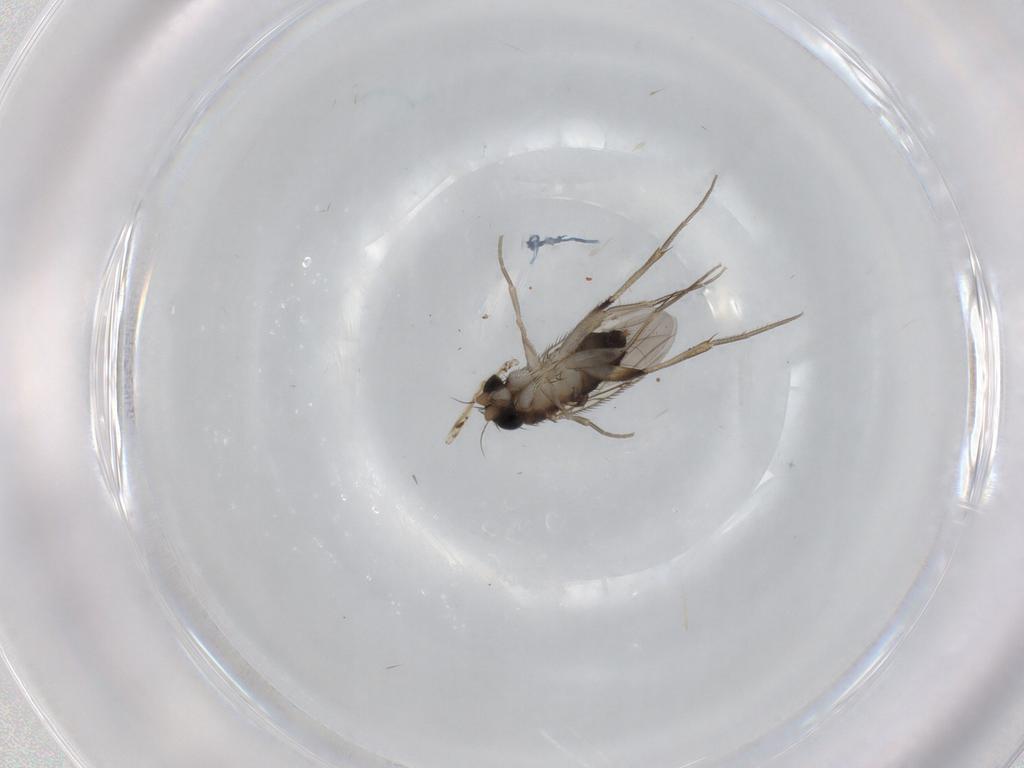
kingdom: Animalia
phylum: Arthropoda
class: Insecta
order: Diptera
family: Phoridae
